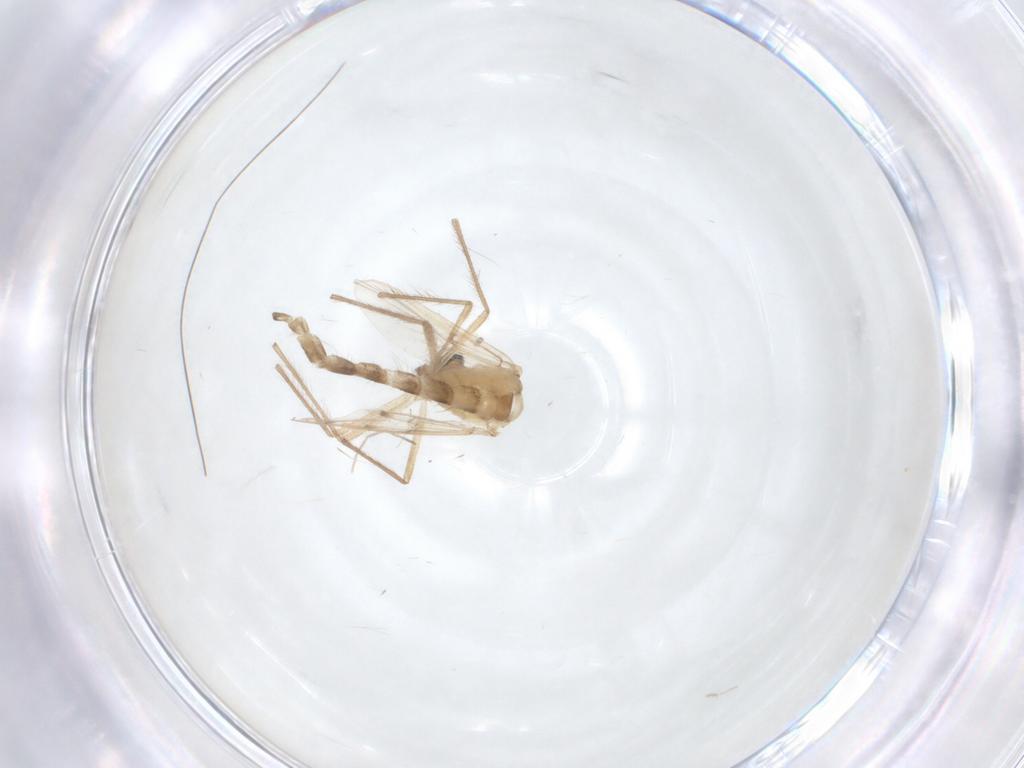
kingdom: Animalia
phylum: Arthropoda
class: Insecta
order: Diptera
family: Chironomidae
